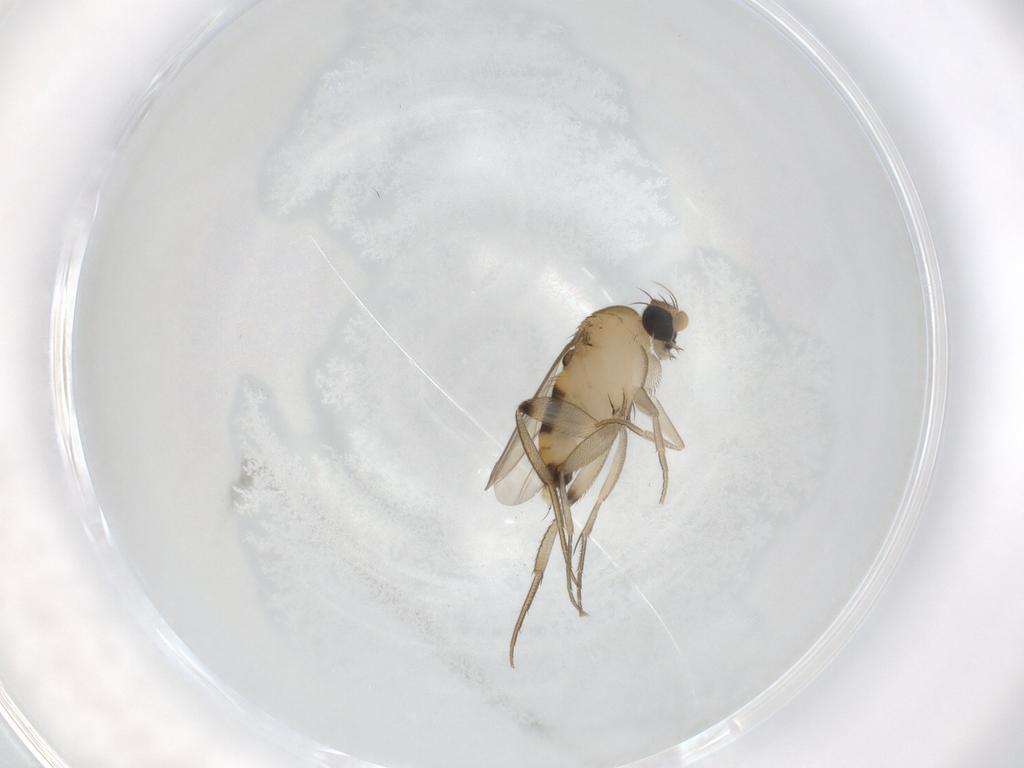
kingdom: Animalia
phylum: Arthropoda
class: Insecta
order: Diptera
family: Phoridae
